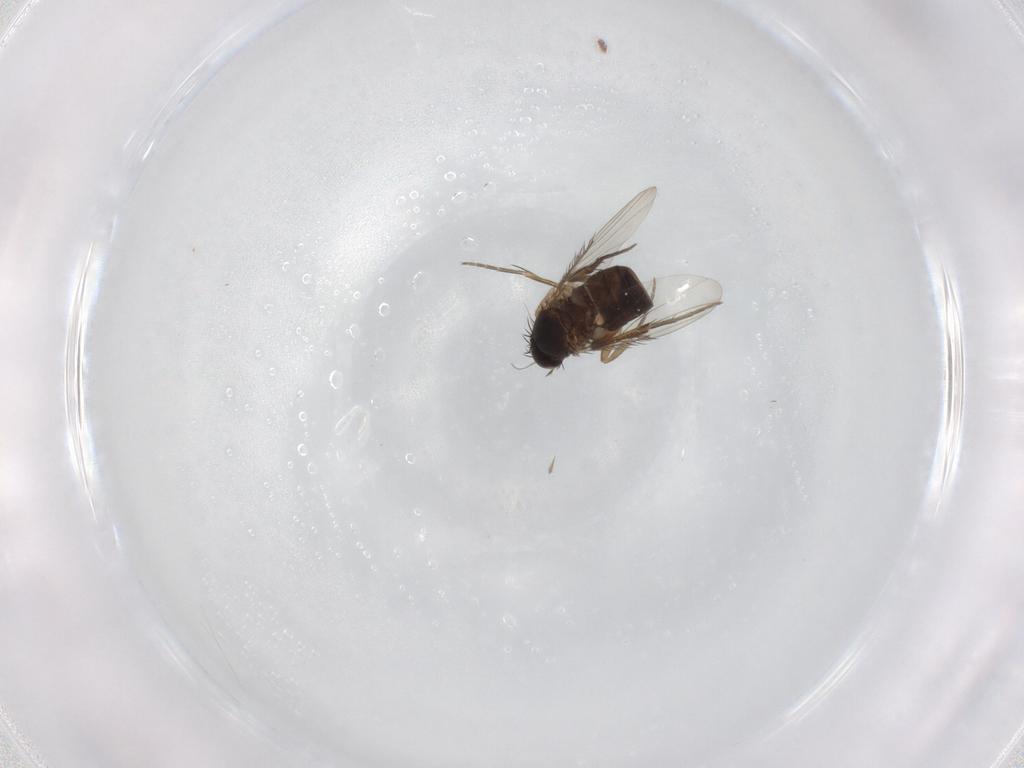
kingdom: Animalia
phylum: Arthropoda
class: Insecta
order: Diptera
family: Phoridae
